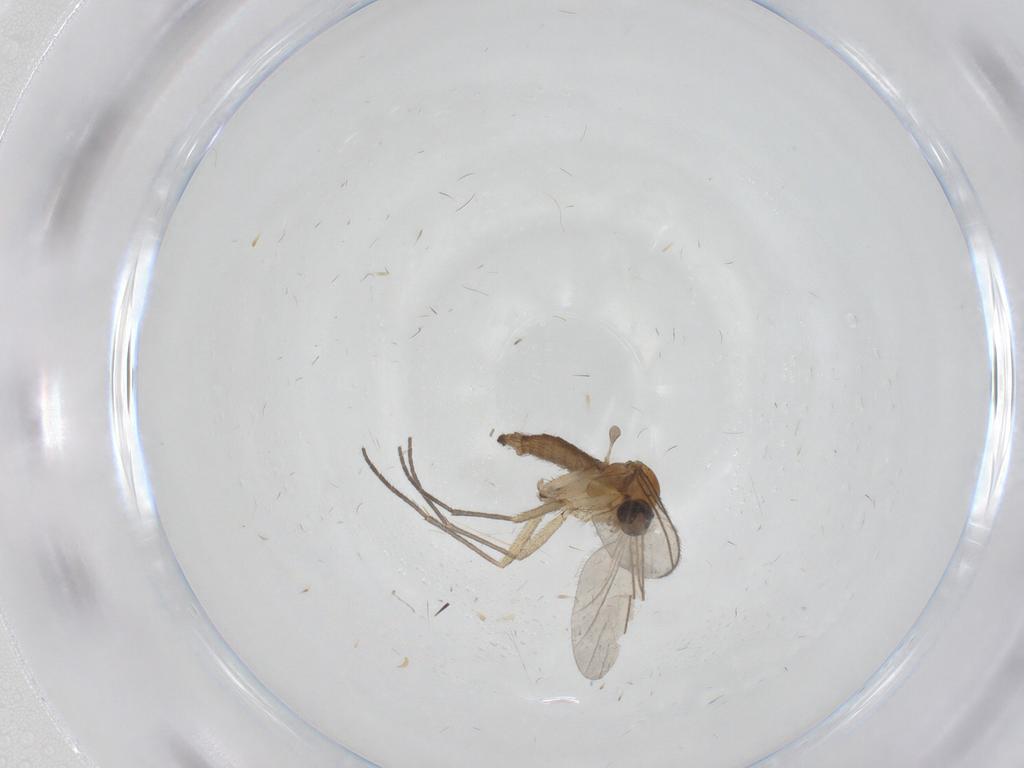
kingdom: Animalia
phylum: Arthropoda
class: Insecta
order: Diptera
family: Sciaridae
